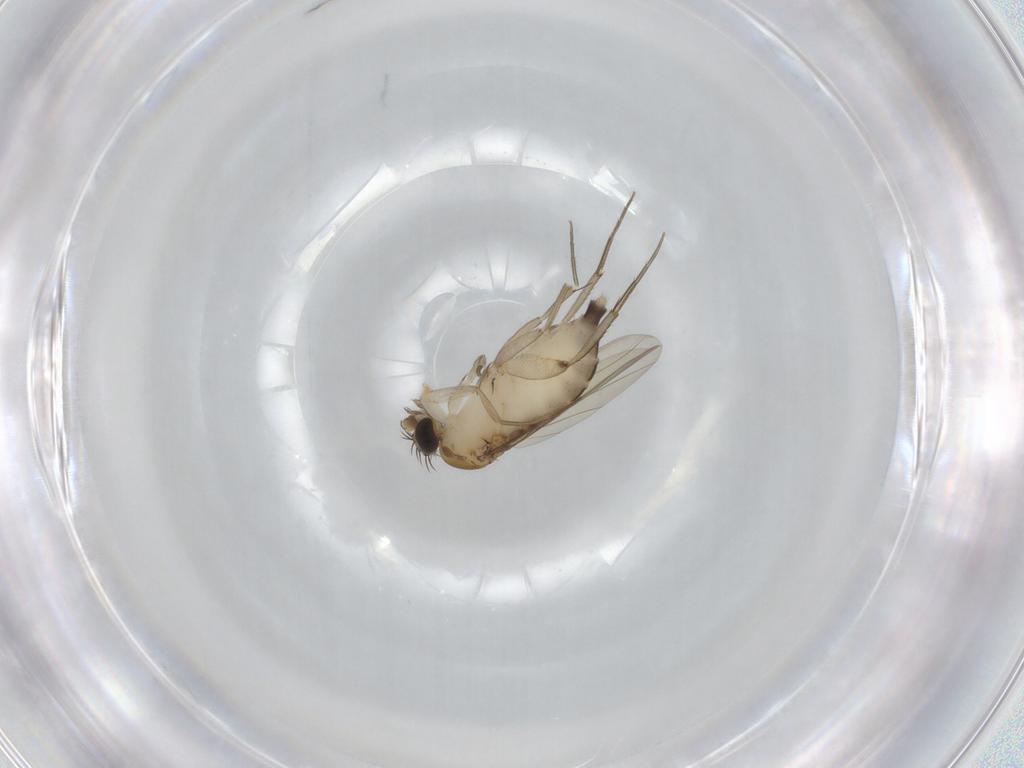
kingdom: Animalia
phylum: Arthropoda
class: Insecta
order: Diptera
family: Phoridae
